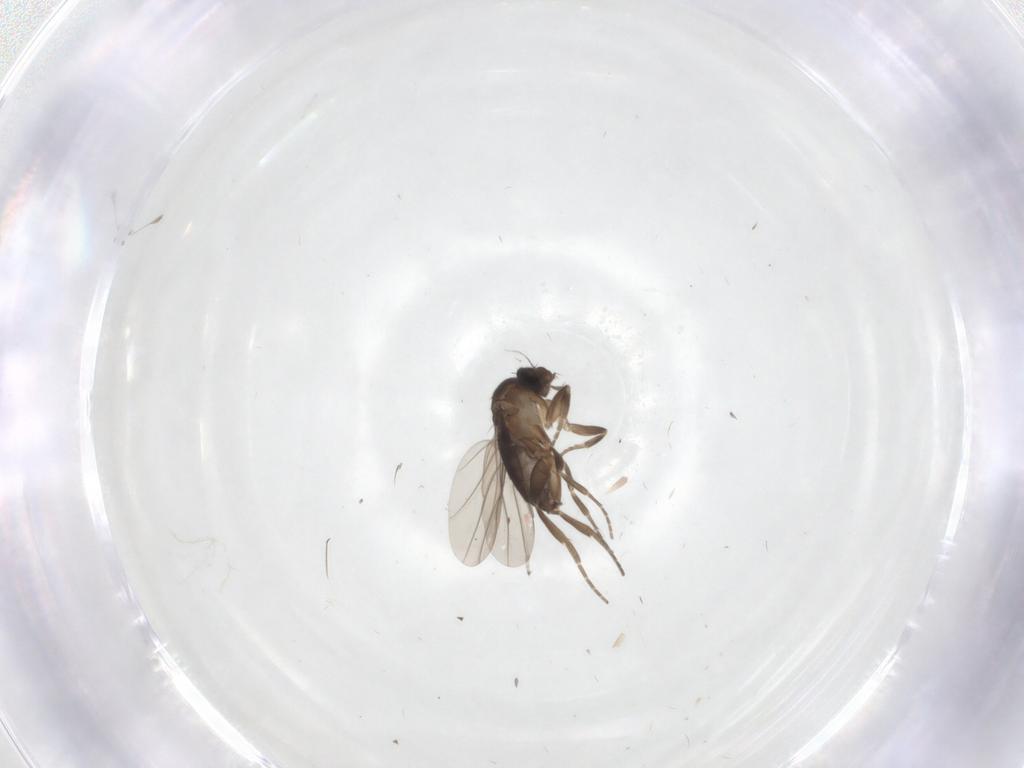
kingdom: Animalia
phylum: Arthropoda
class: Insecta
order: Diptera
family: Phoridae
